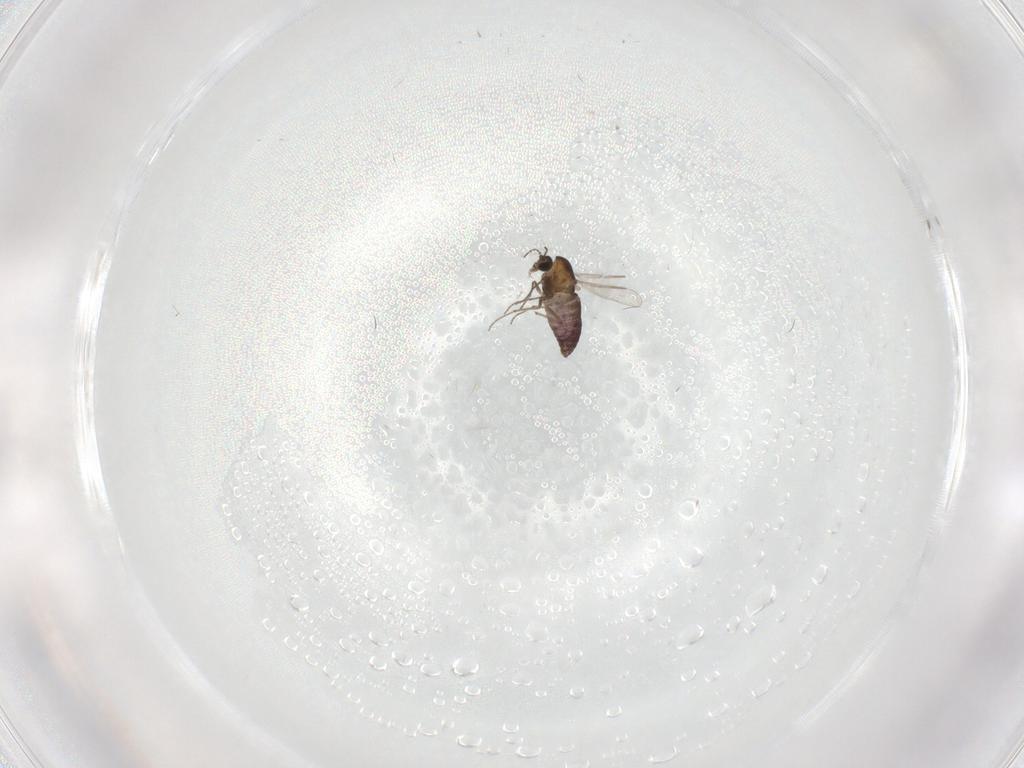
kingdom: Animalia
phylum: Arthropoda
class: Insecta
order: Diptera
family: Chironomidae
